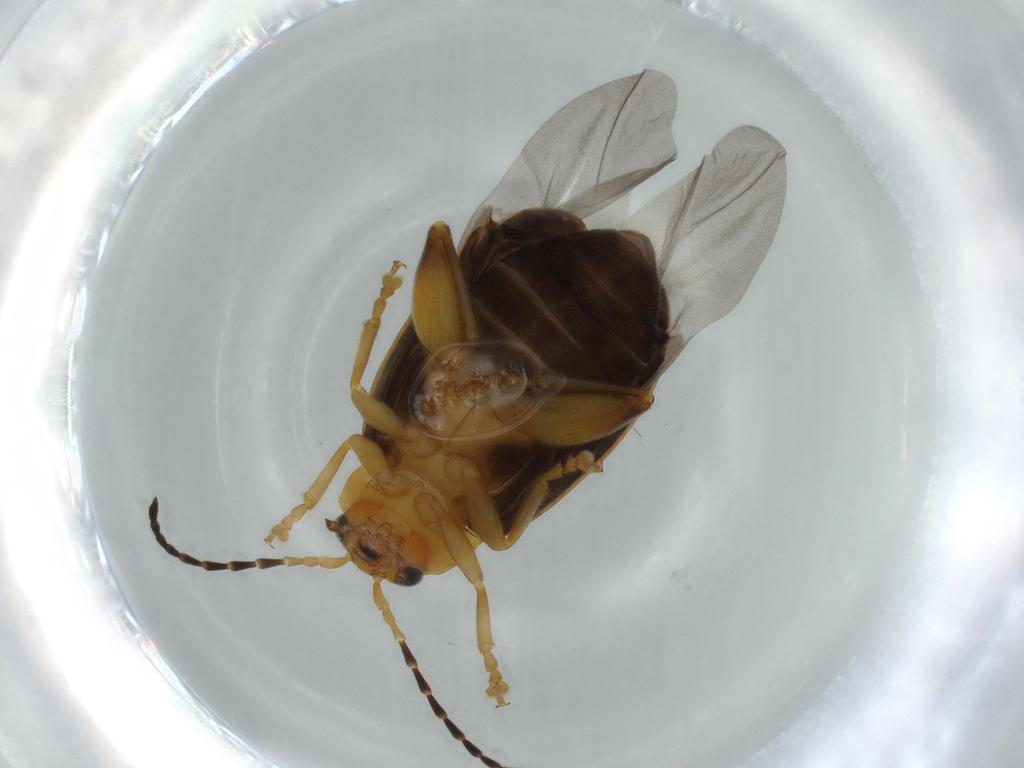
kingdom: Animalia
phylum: Arthropoda
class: Insecta
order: Coleoptera
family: Chrysomelidae
